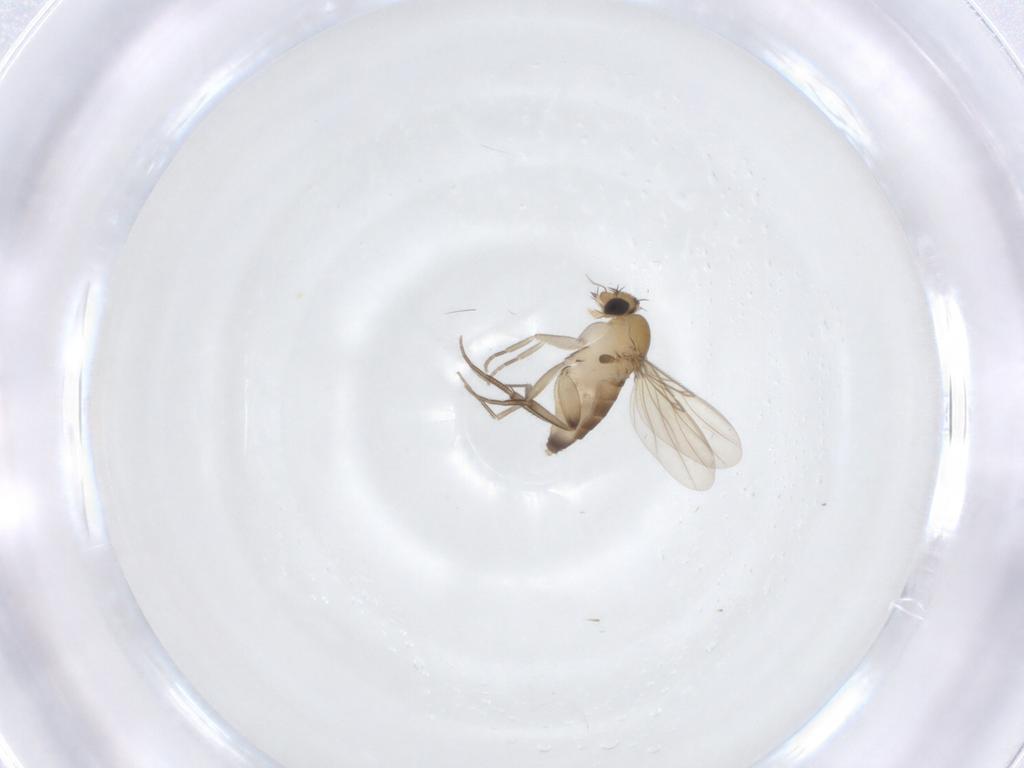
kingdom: Animalia
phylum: Arthropoda
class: Insecta
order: Diptera
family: Phoridae
